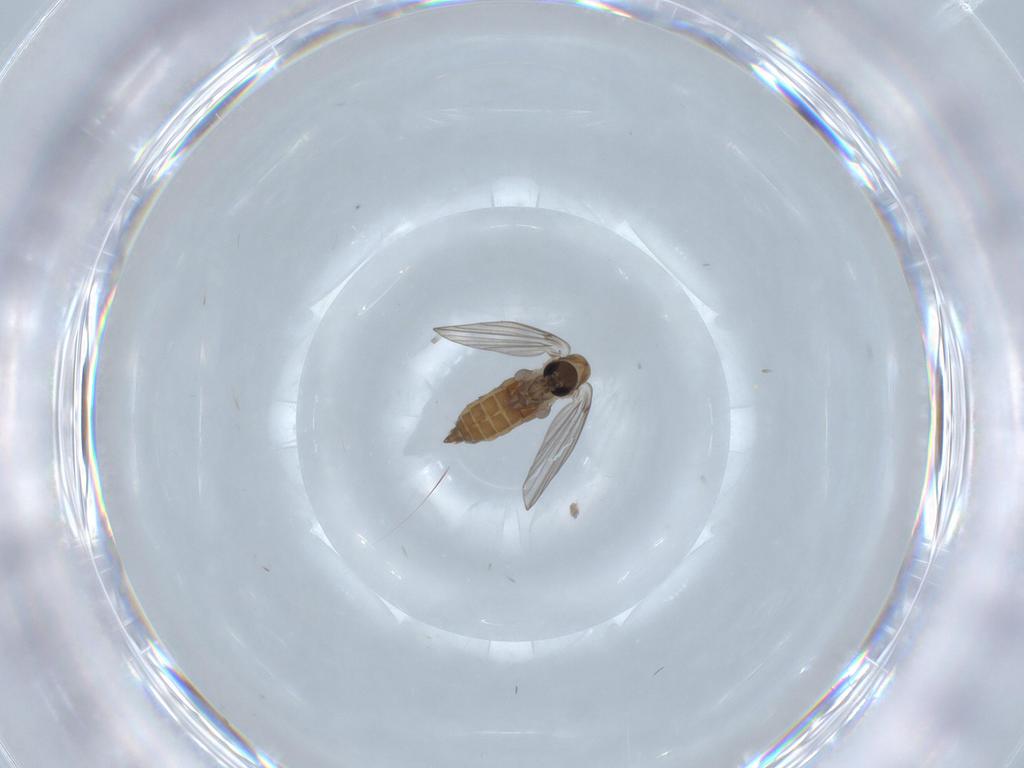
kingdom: Animalia
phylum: Arthropoda
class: Insecta
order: Diptera
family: Psychodidae
